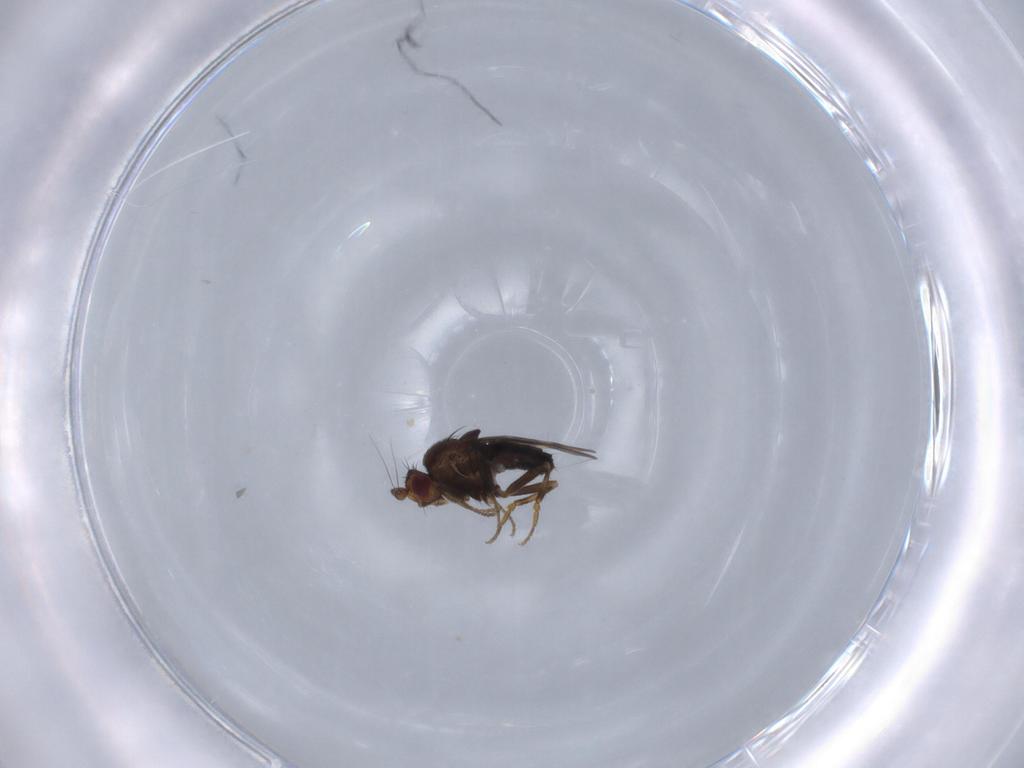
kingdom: Animalia
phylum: Arthropoda
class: Insecta
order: Diptera
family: Sphaeroceridae
